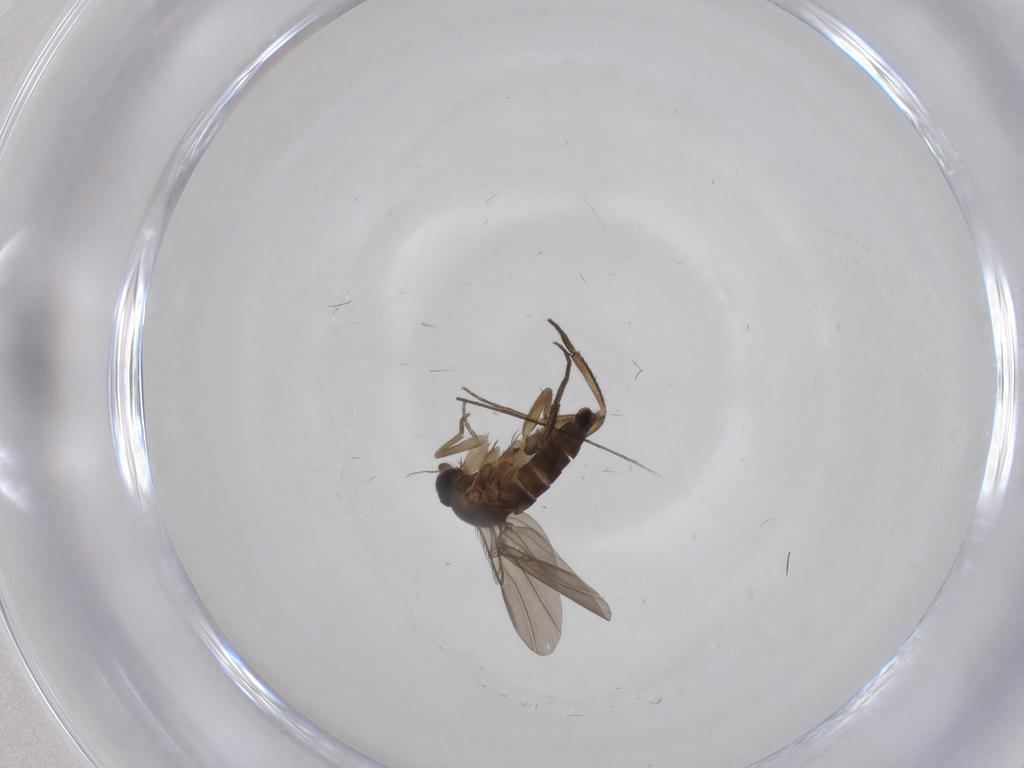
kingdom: Animalia
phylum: Arthropoda
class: Insecta
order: Diptera
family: Phoridae
